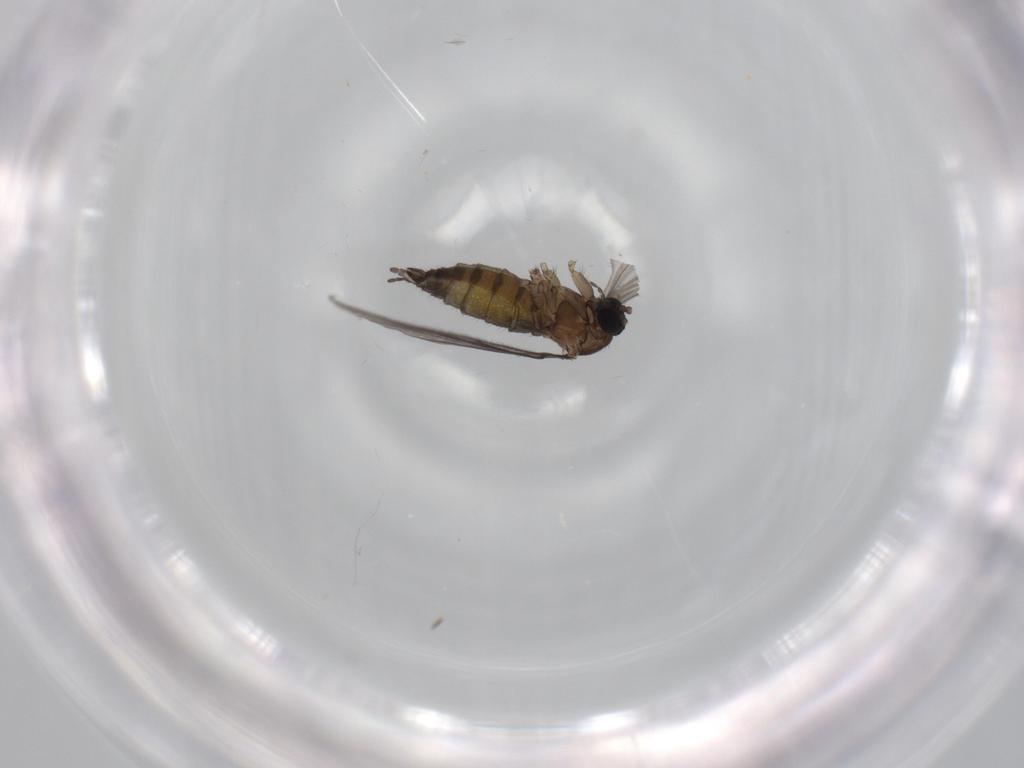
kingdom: Animalia
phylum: Arthropoda
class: Insecta
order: Diptera
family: Sciaridae
